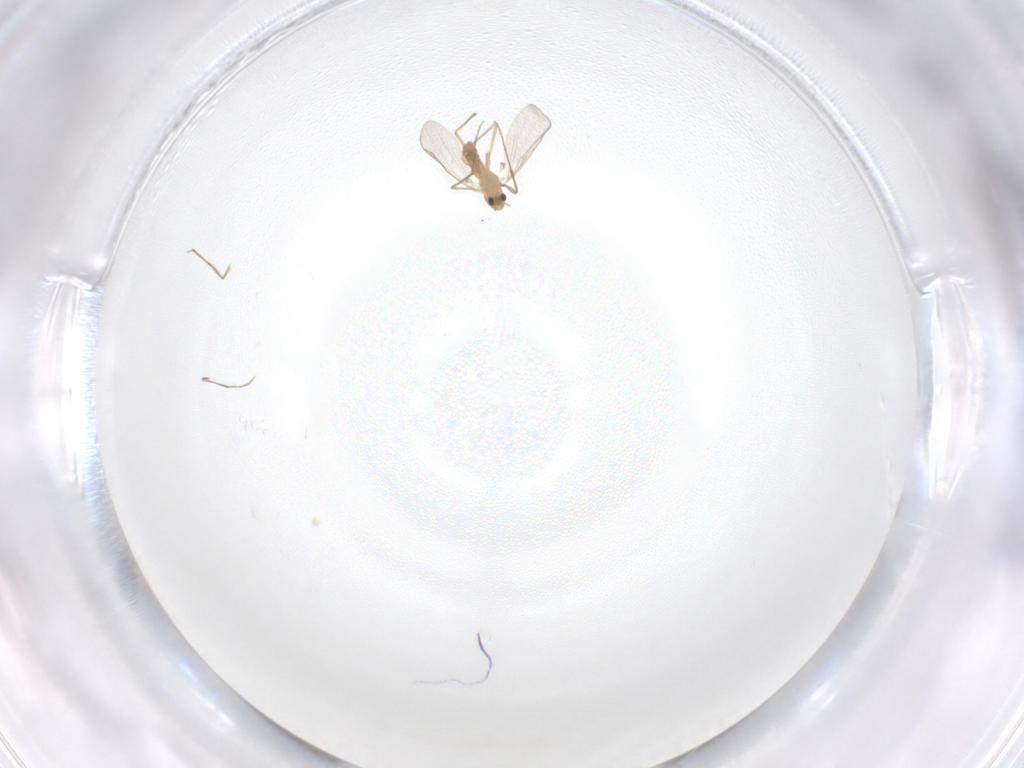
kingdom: Animalia
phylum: Arthropoda
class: Insecta
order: Diptera
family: Chironomidae
